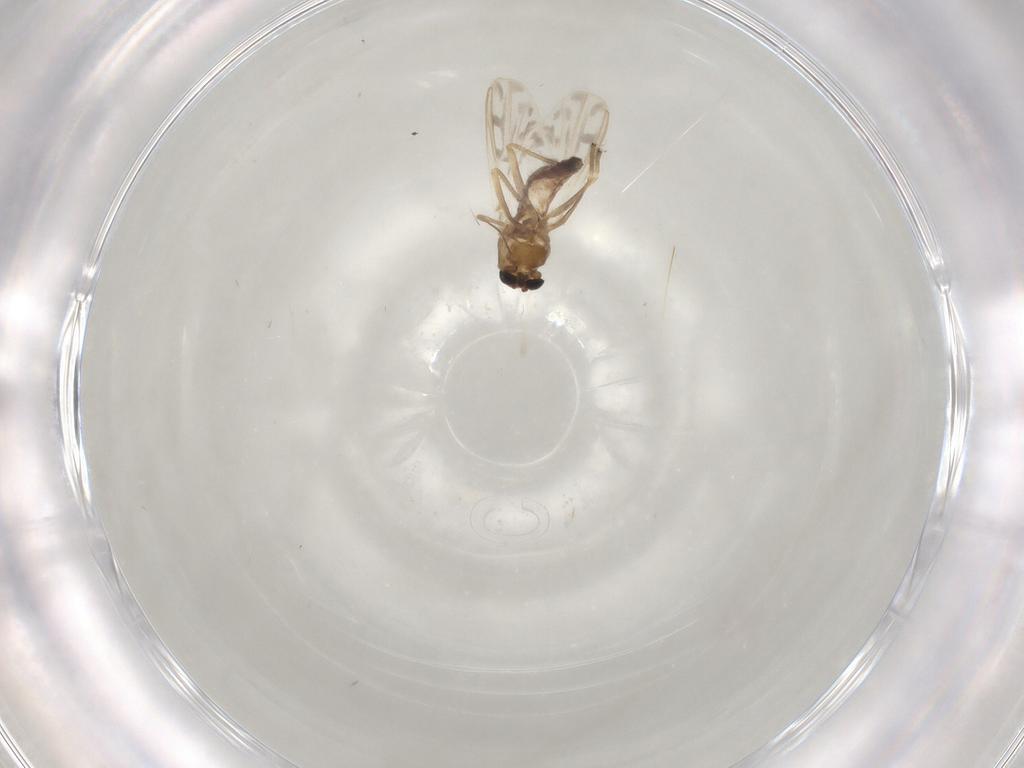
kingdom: Animalia
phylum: Arthropoda
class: Insecta
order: Diptera
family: Chironomidae
